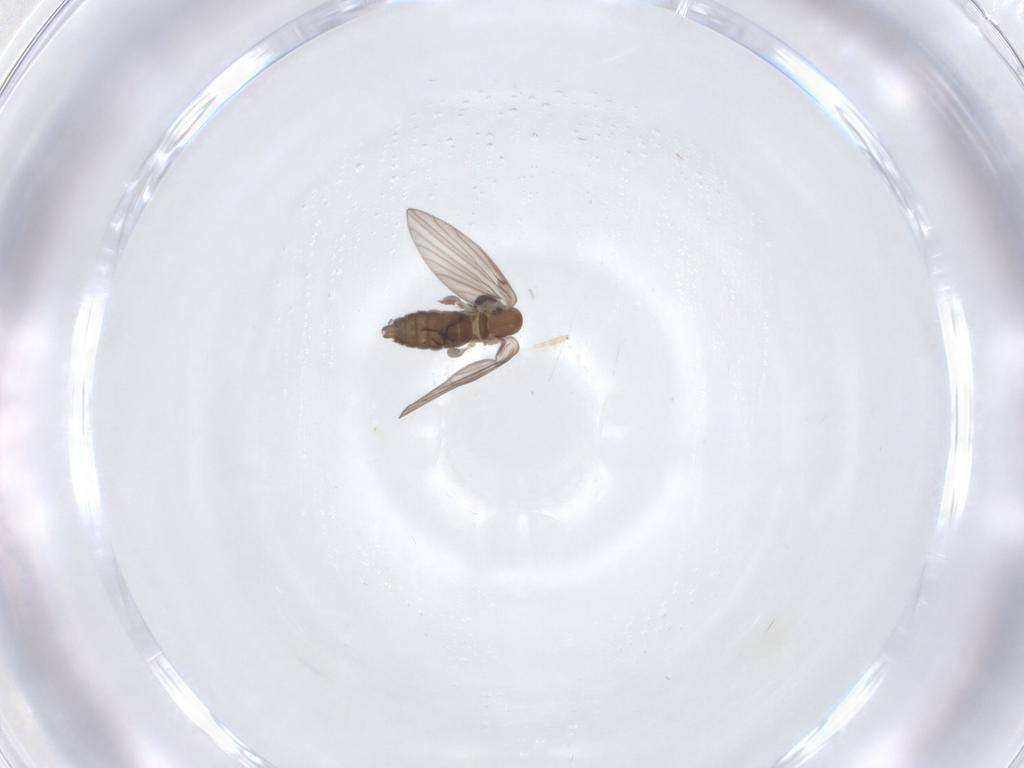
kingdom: Animalia
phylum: Arthropoda
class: Insecta
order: Diptera
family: Psychodidae
